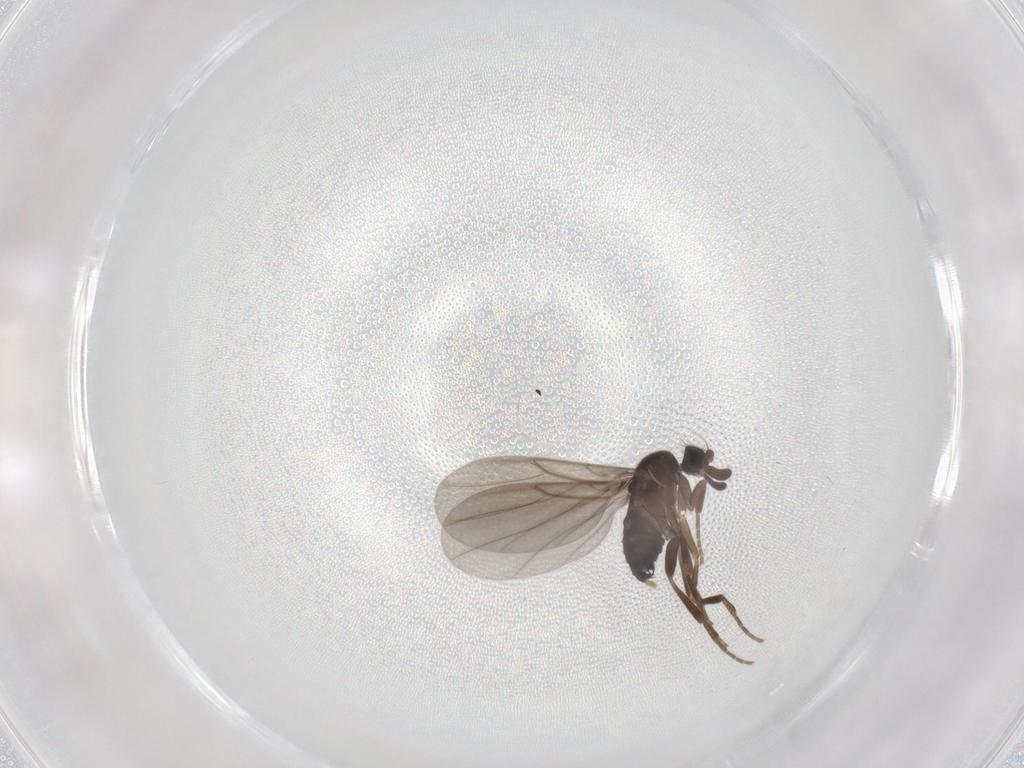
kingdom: Animalia
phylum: Arthropoda
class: Insecta
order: Diptera
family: Sciaridae
